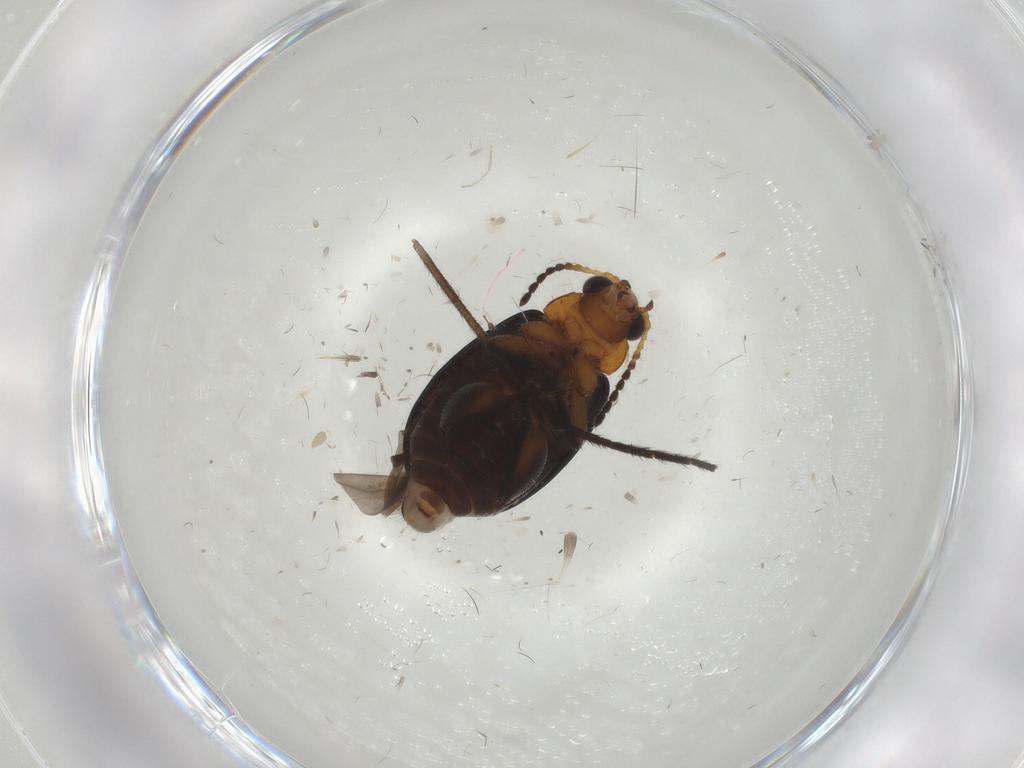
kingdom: Animalia
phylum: Arthropoda
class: Insecta
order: Coleoptera
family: Chrysomelidae
